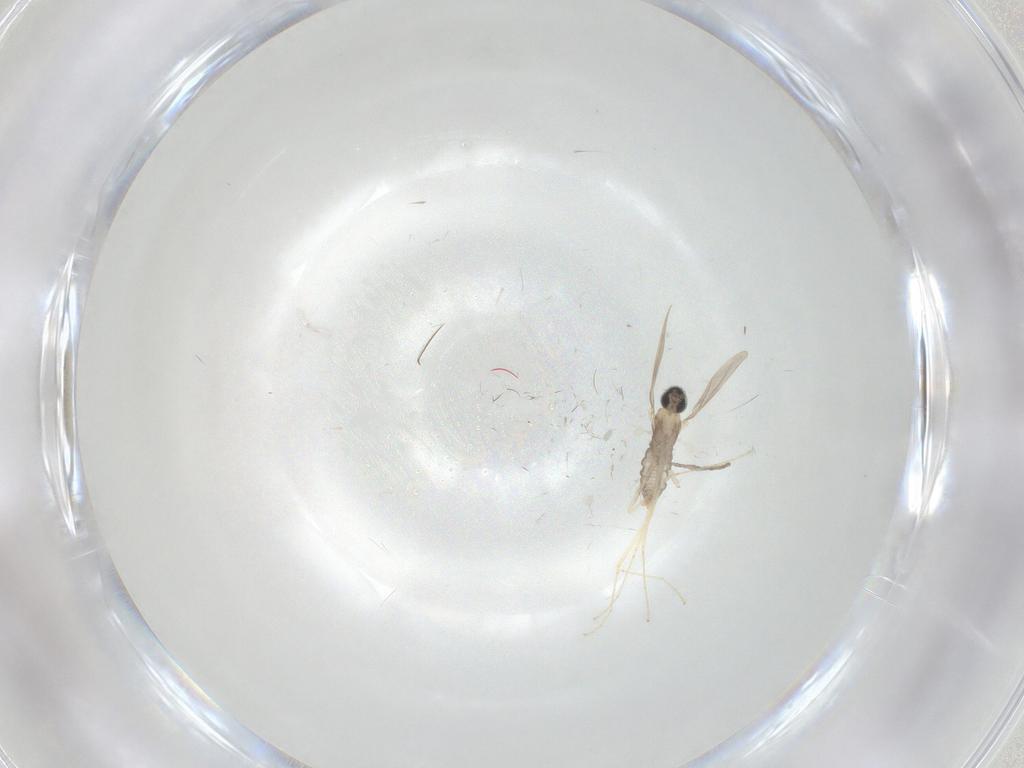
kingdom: Animalia
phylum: Arthropoda
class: Insecta
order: Diptera
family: Cecidomyiidae
